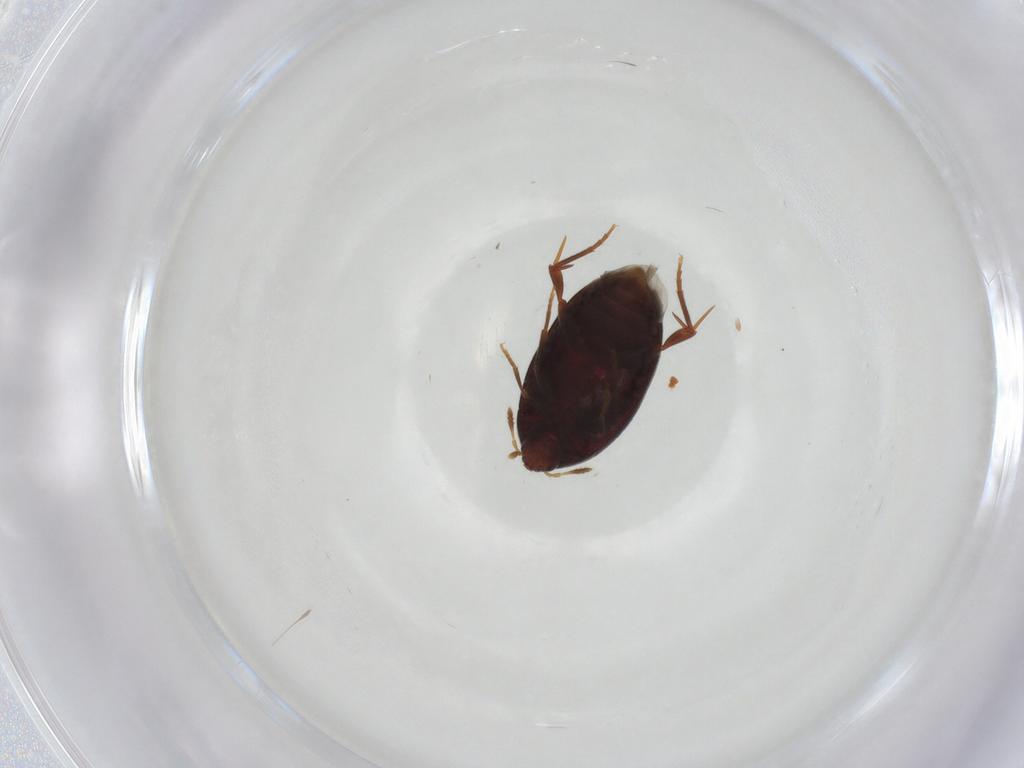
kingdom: Animalia
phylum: Arthropoda
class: Insecta
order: Coleoptera
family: Melandryidae
